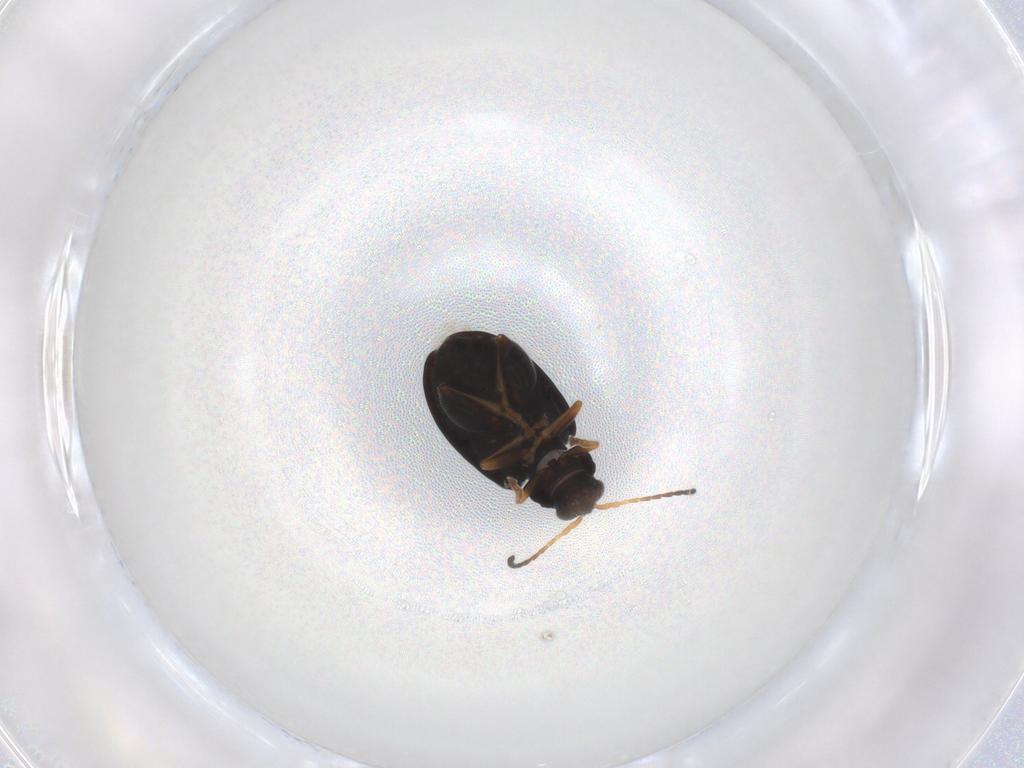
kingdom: Animalia
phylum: Arthropoda
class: Insecta
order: Coleoptera
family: Chrysomelidae
